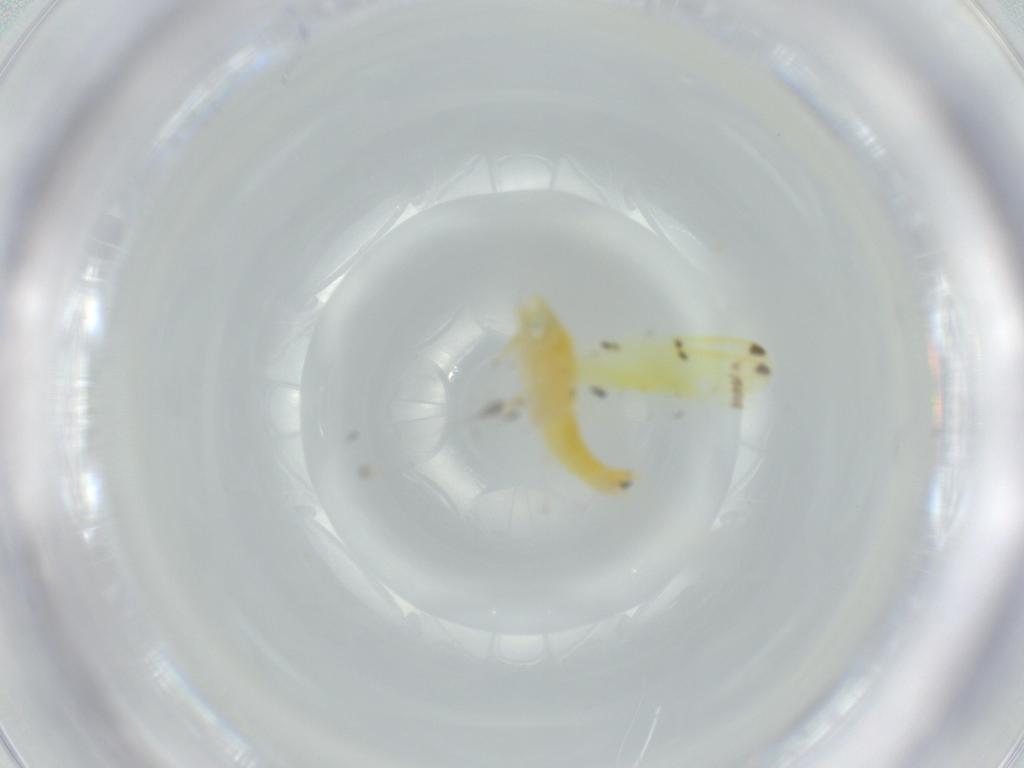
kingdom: Animalia
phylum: Arthropoda
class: Insecta
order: Hemiptera
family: Cicadellidae
